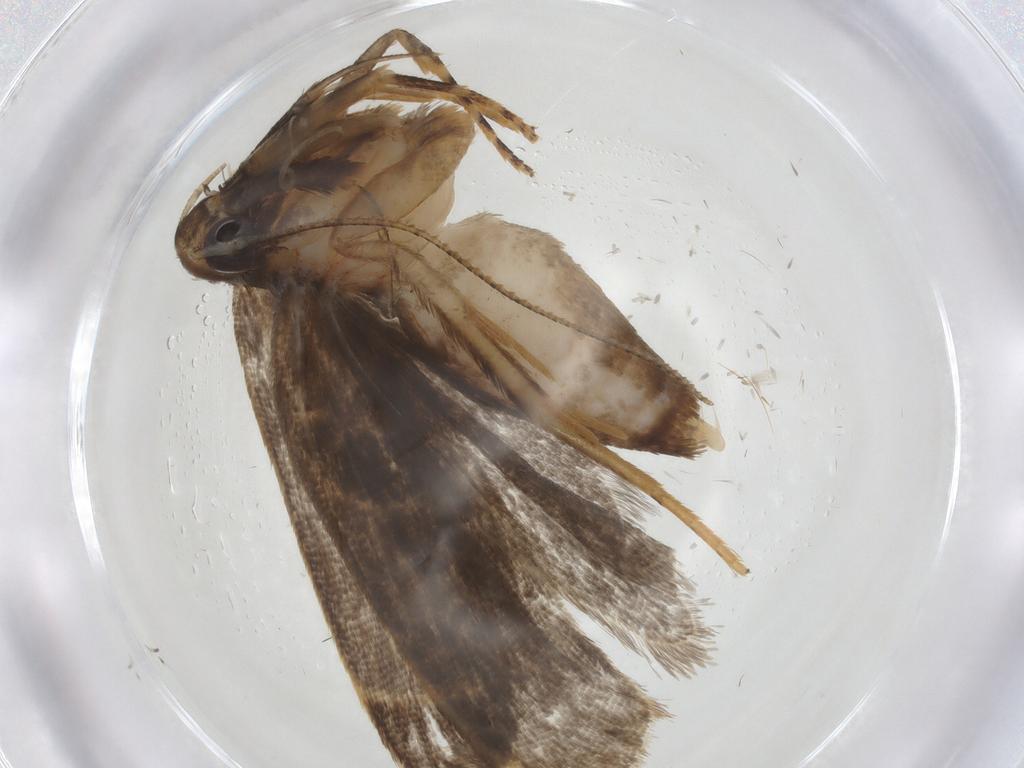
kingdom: Animalia
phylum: Arthropoda
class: Insecta
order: Lepidoptera
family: Gelechiidae
